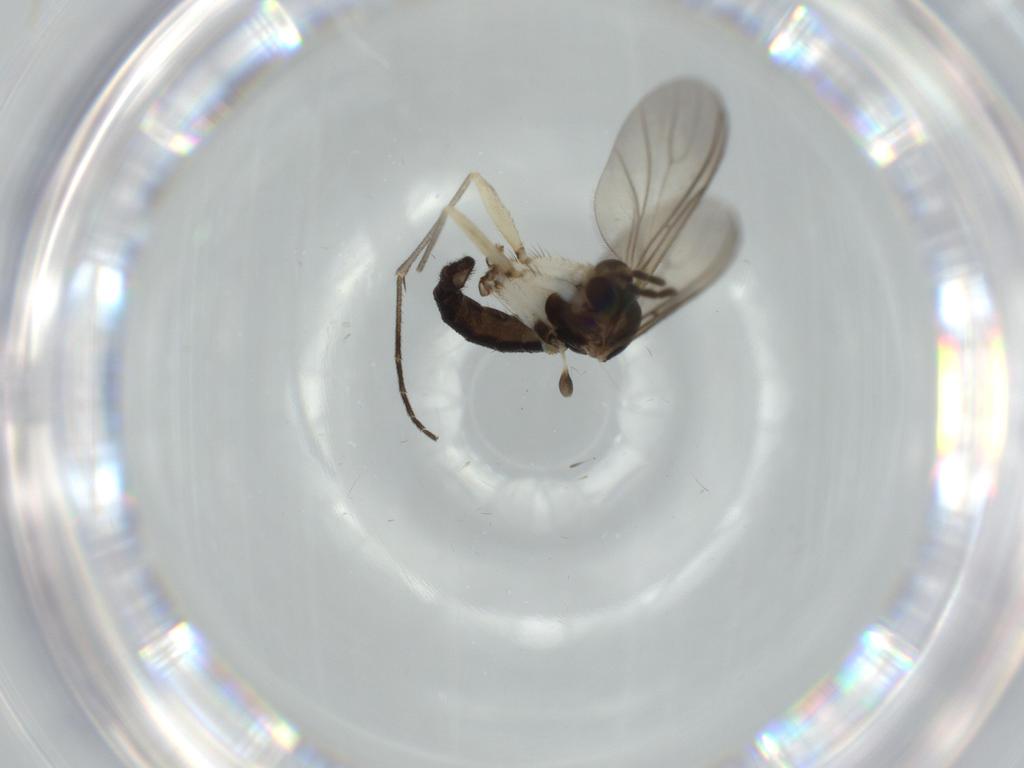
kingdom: Animalia
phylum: Arthropoda
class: Insecta
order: Diptera
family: Sciaridae
